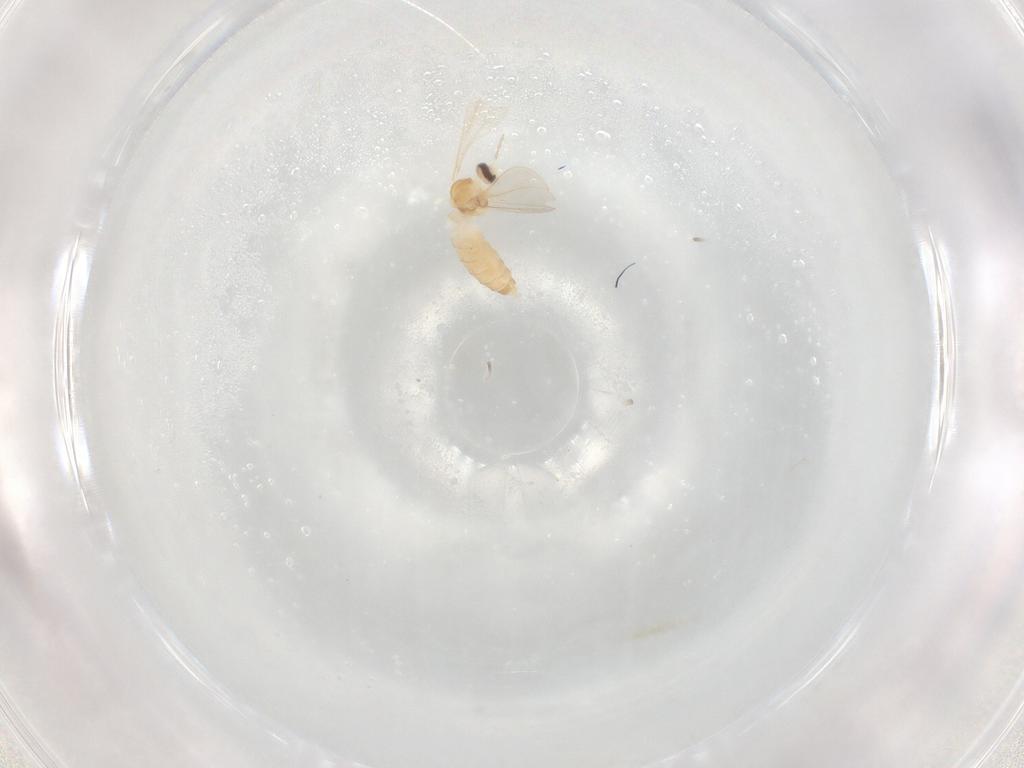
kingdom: Animalia
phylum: Arthropoda
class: Insecta
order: Diptera
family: Cecidomyiidae
